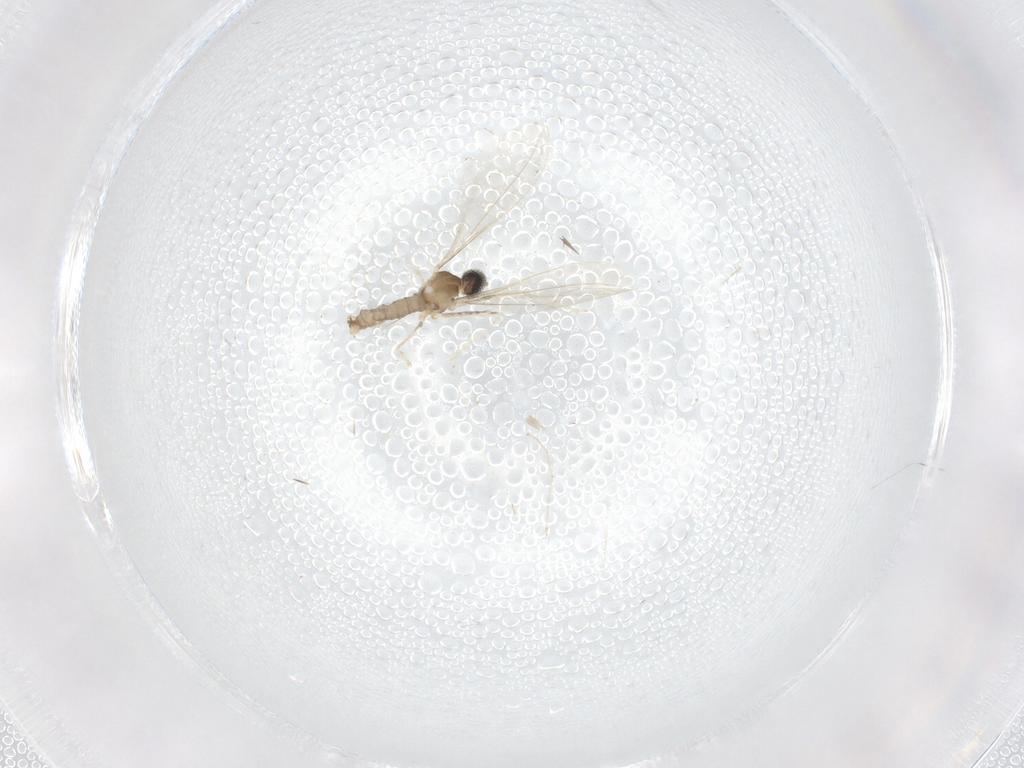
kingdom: Animalia
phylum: Arthropoda
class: Insecta
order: Diptera
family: Cecidomyiidae
